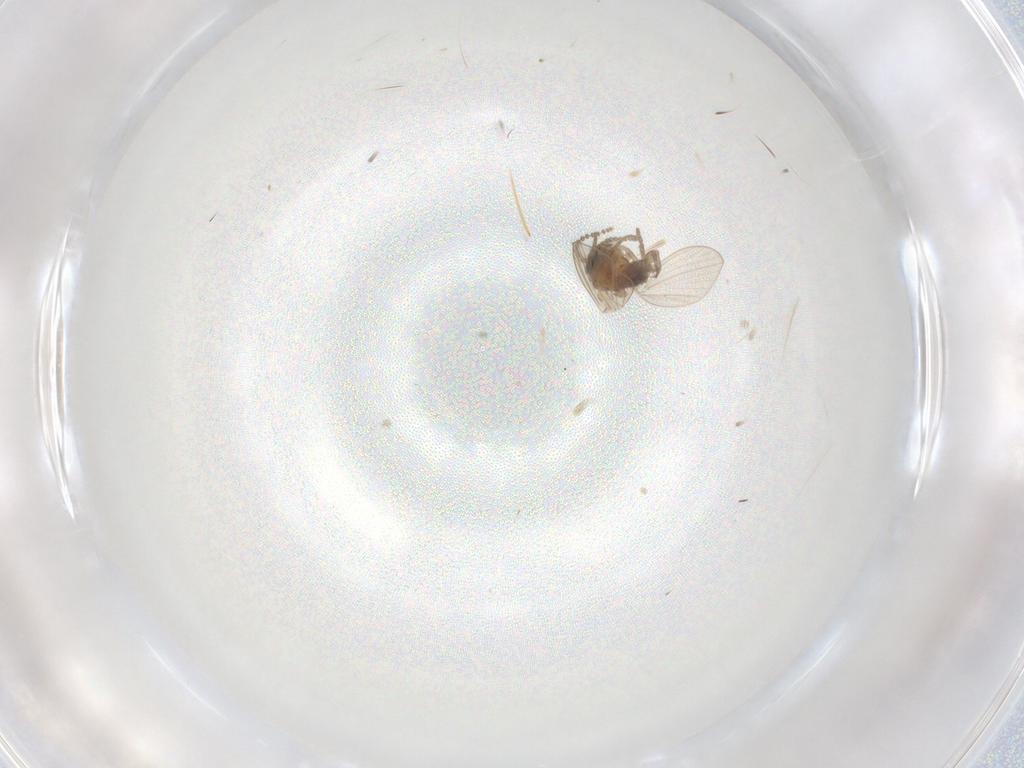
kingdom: Animalia
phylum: Arthropoda
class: Insecta
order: Diptera
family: Psychodidae
